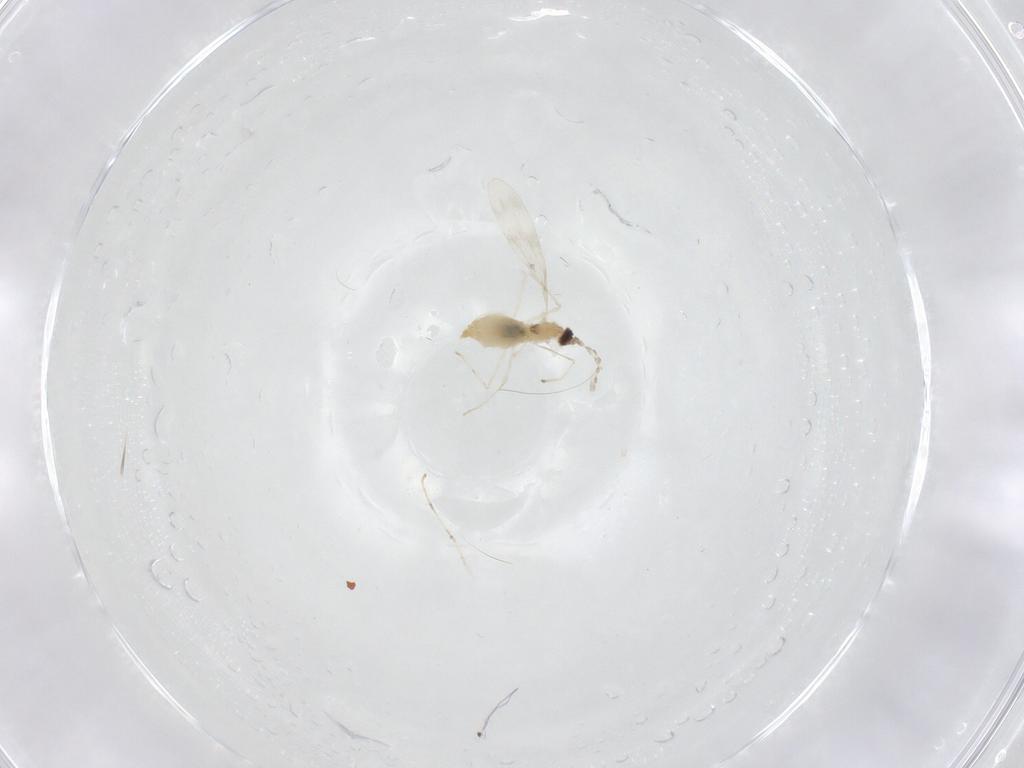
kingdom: Animalia
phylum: Arthropoda
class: Insecta
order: Diptera
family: Cecidomyiidae
